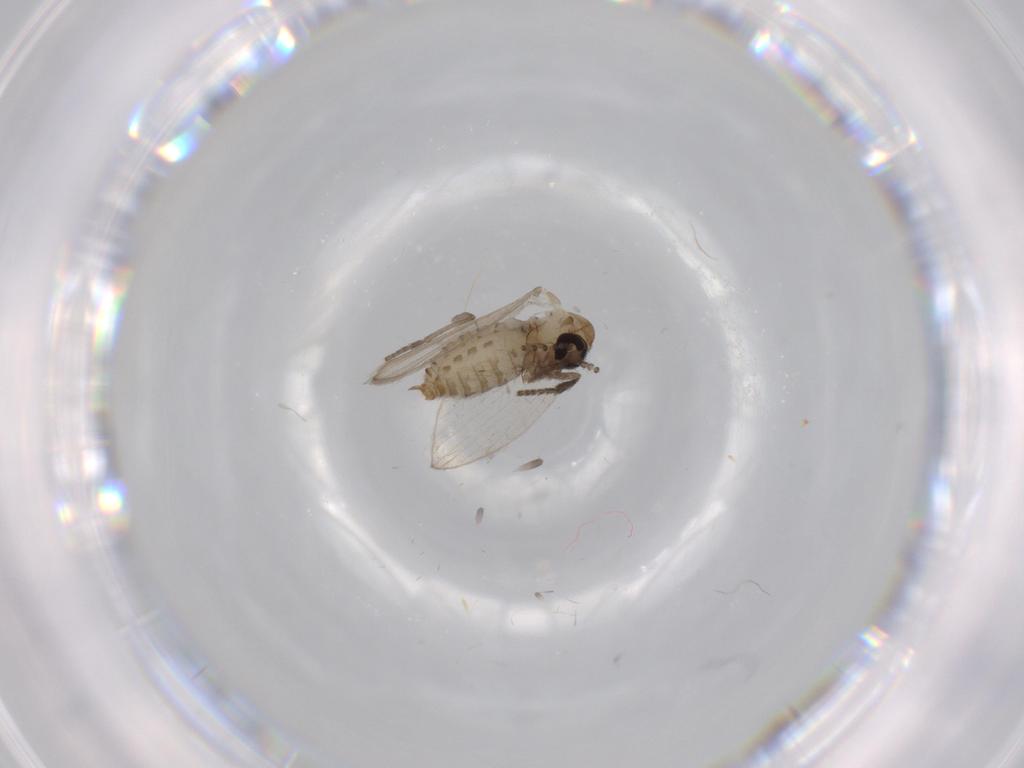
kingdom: Animalia
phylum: Arthropoda
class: Insecta
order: Diptera
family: Psychodidae
